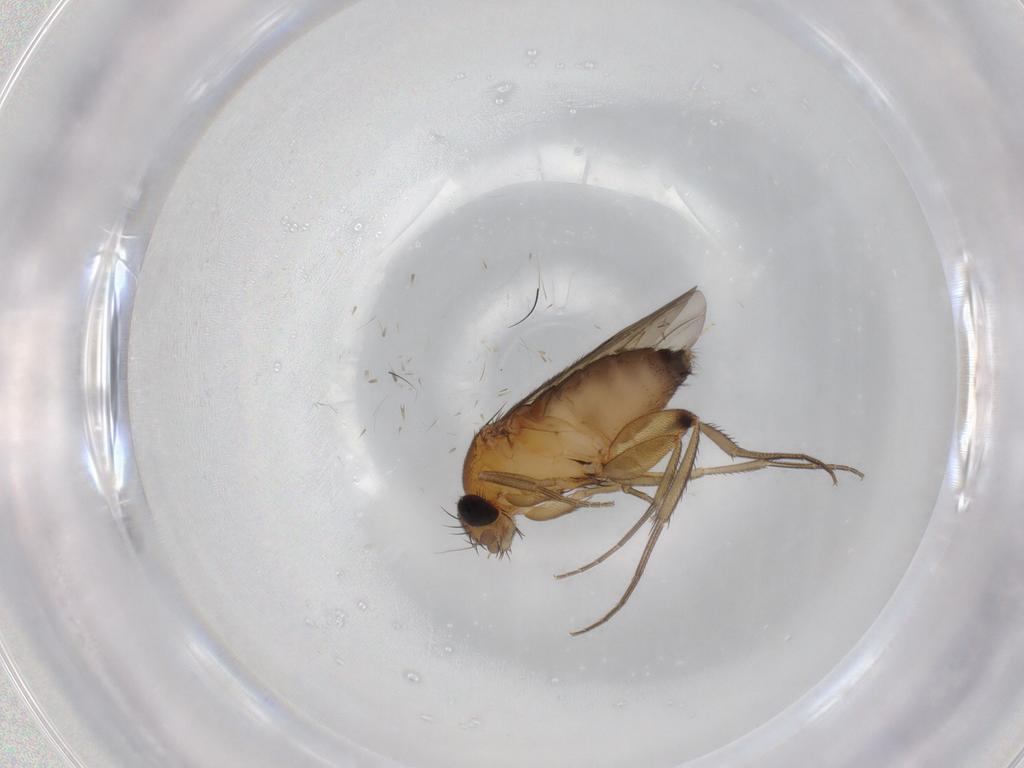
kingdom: Animalia
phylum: Arthropoda
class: Insecta
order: Diptera
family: Phoridae
